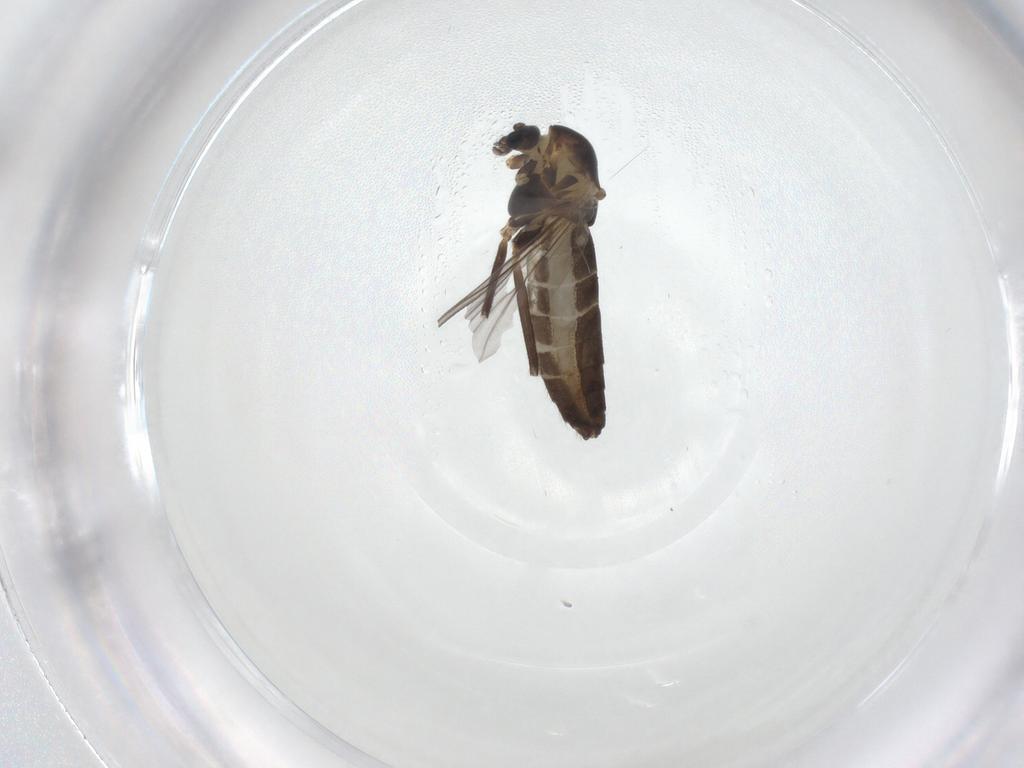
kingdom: Animalia
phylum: Arthropoda
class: Insecta
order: Diptera
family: Chironomidae
